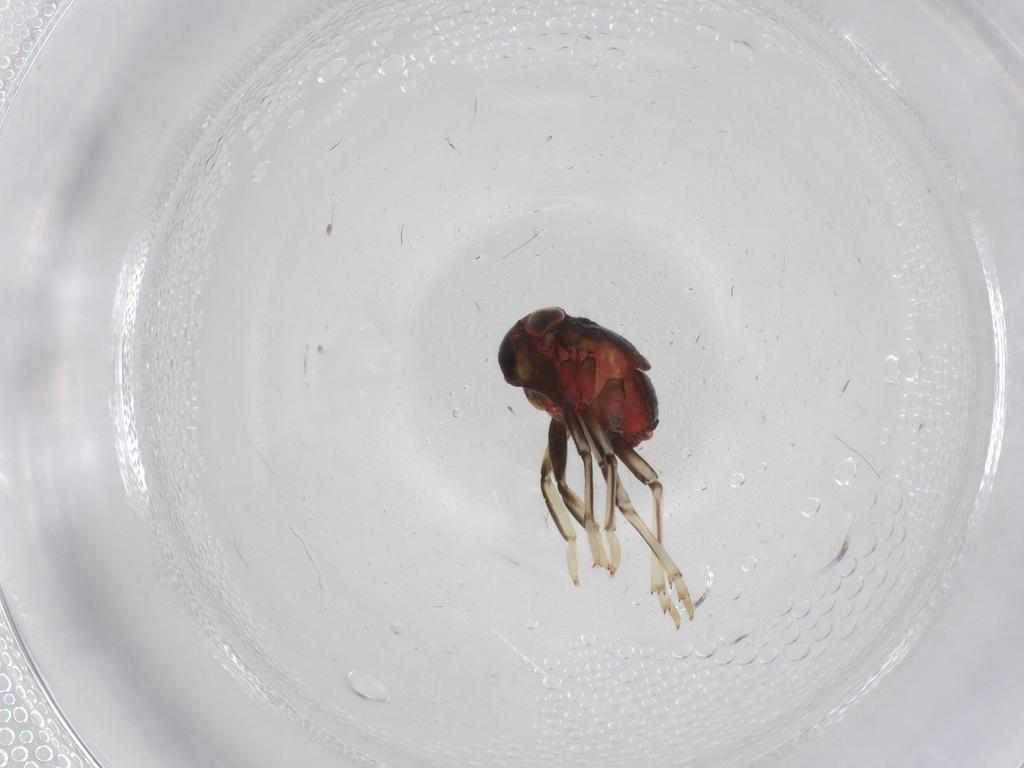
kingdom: Animalia
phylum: Arthropoda
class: Insecta
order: Hemiptera
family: Issidae
